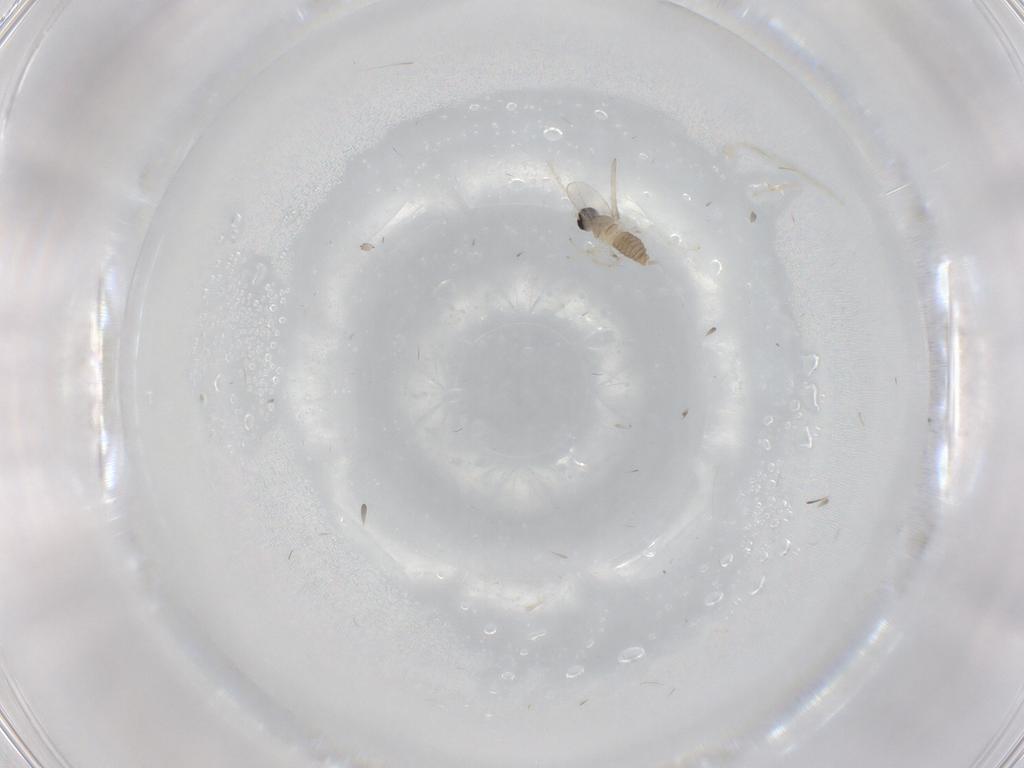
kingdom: Animalia
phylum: Arthropoda
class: Insecta
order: Diptera
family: Cecidomyiidae
